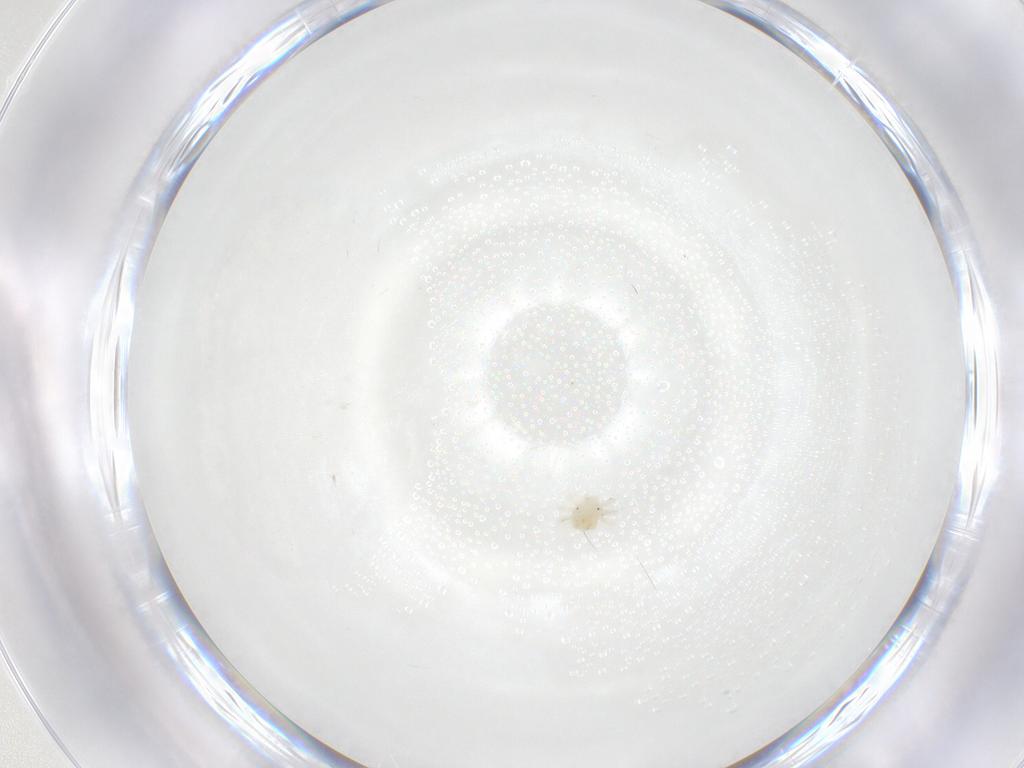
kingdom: Animalia
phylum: Arthropoda
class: Arachnida
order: Trombidiformes
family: Anystidae
